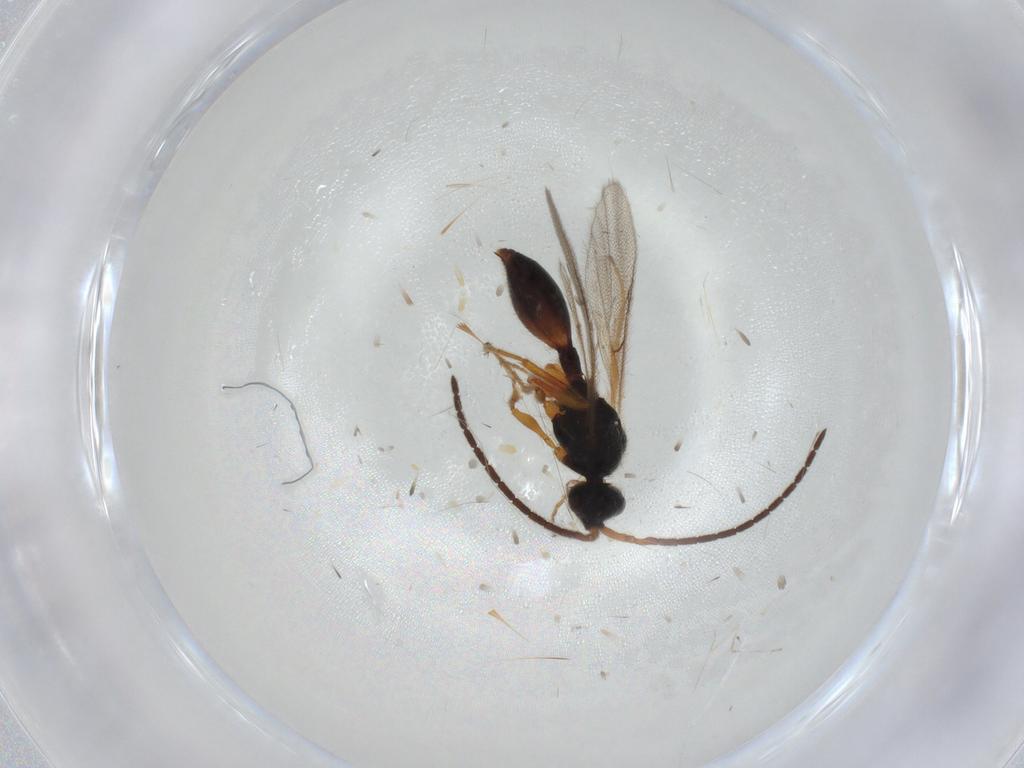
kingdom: Animalia
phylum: Arthropoda
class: Insecta
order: Hymenoptera
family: Diapriidae
